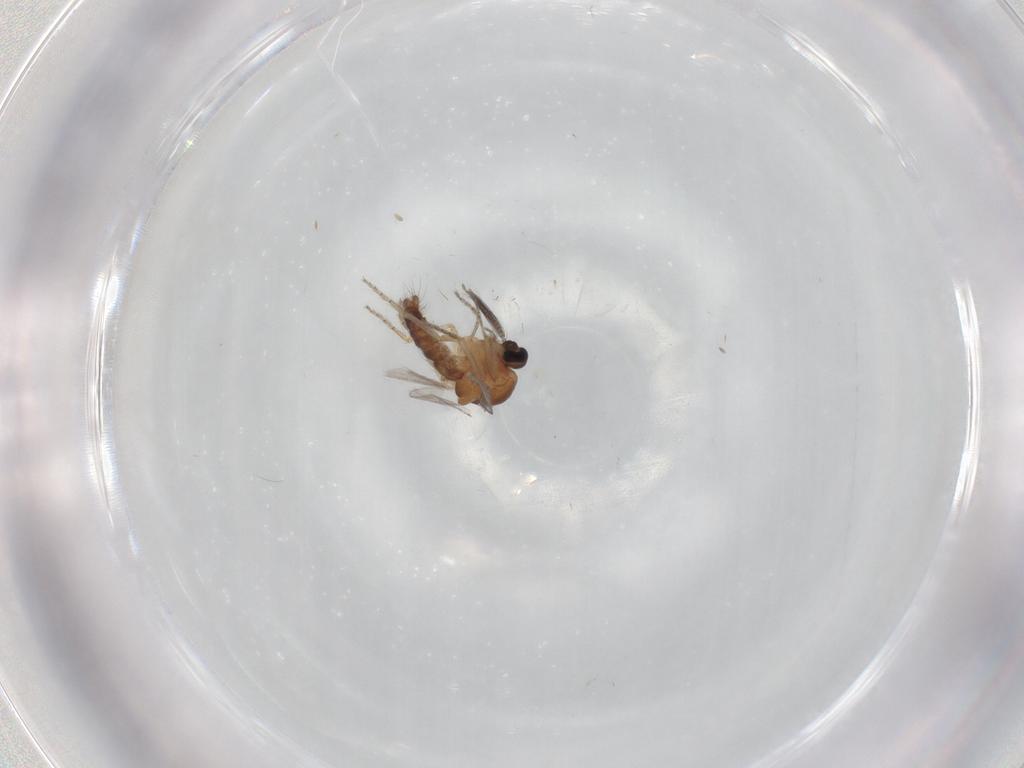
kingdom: Animalia
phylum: Arthropoda
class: Insecta
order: Diptera
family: Ceratopogonidae
